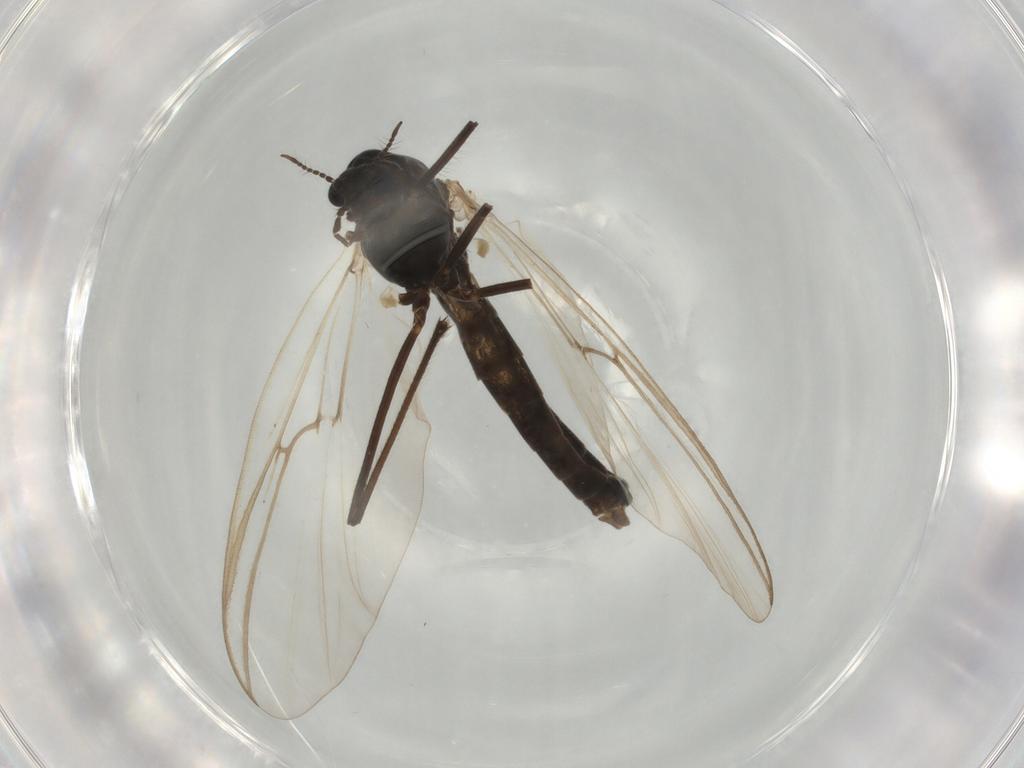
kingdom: Animalia
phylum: Arthropoda
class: Insecta
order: Diptera
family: Chironomidae
